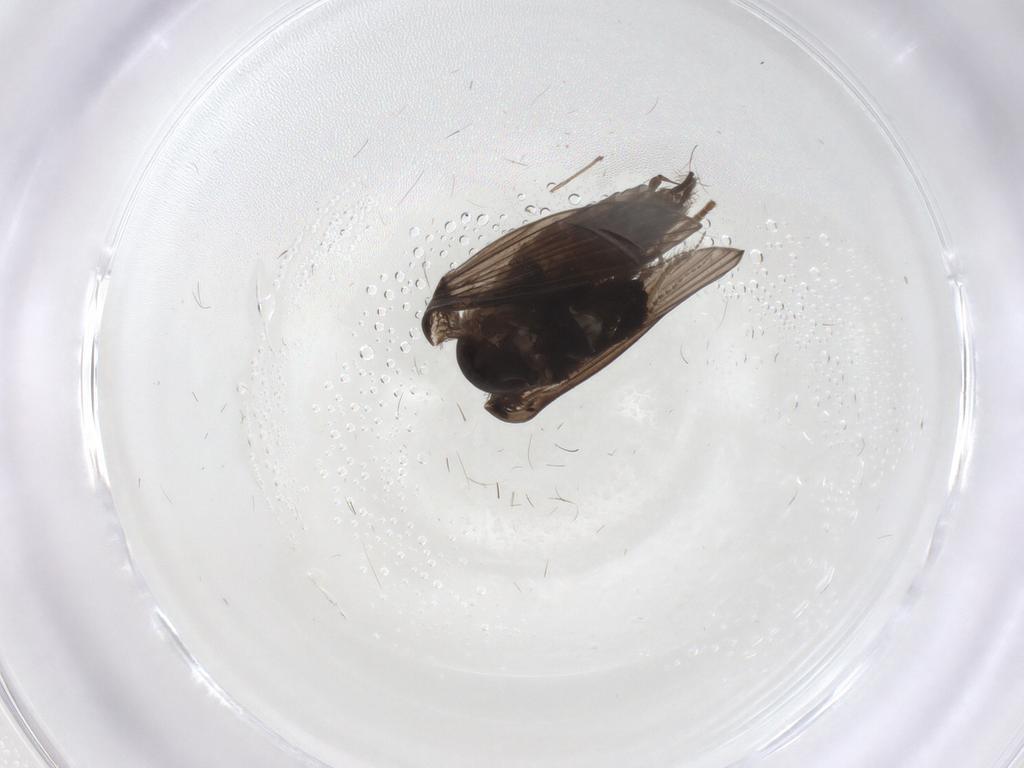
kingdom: Animalia
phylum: Arthropoda
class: Insecta
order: Diptera
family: Psychodidae
